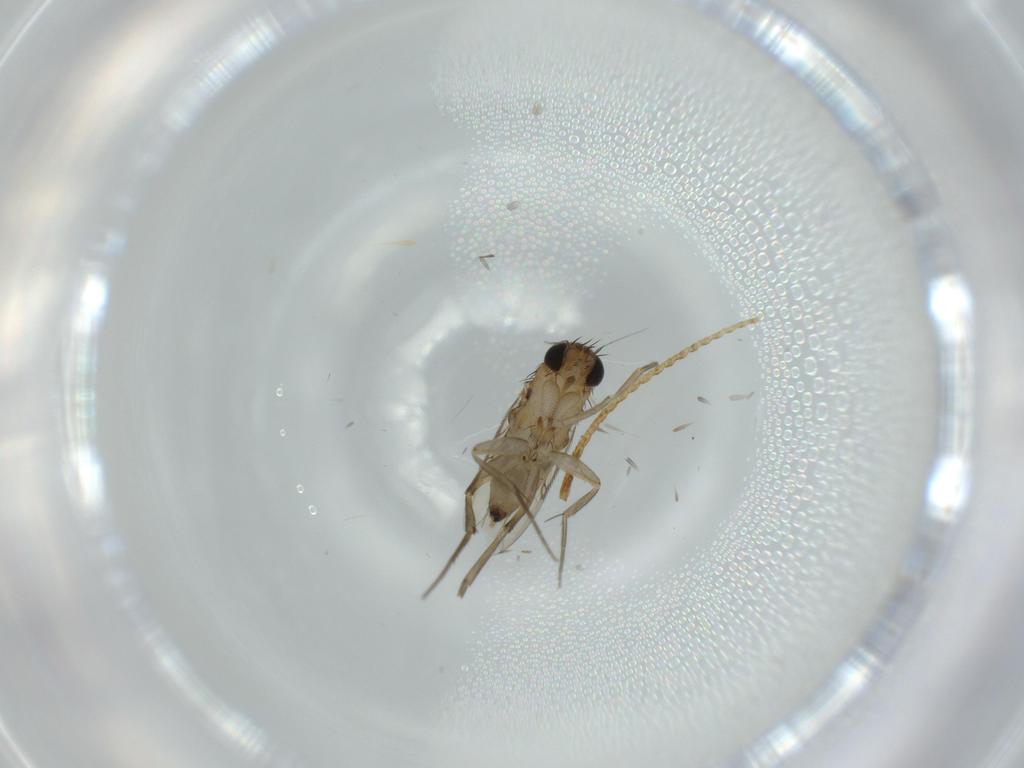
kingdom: Animalia
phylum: Arthropoda
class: Insecta
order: Diptera
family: Phoridae
